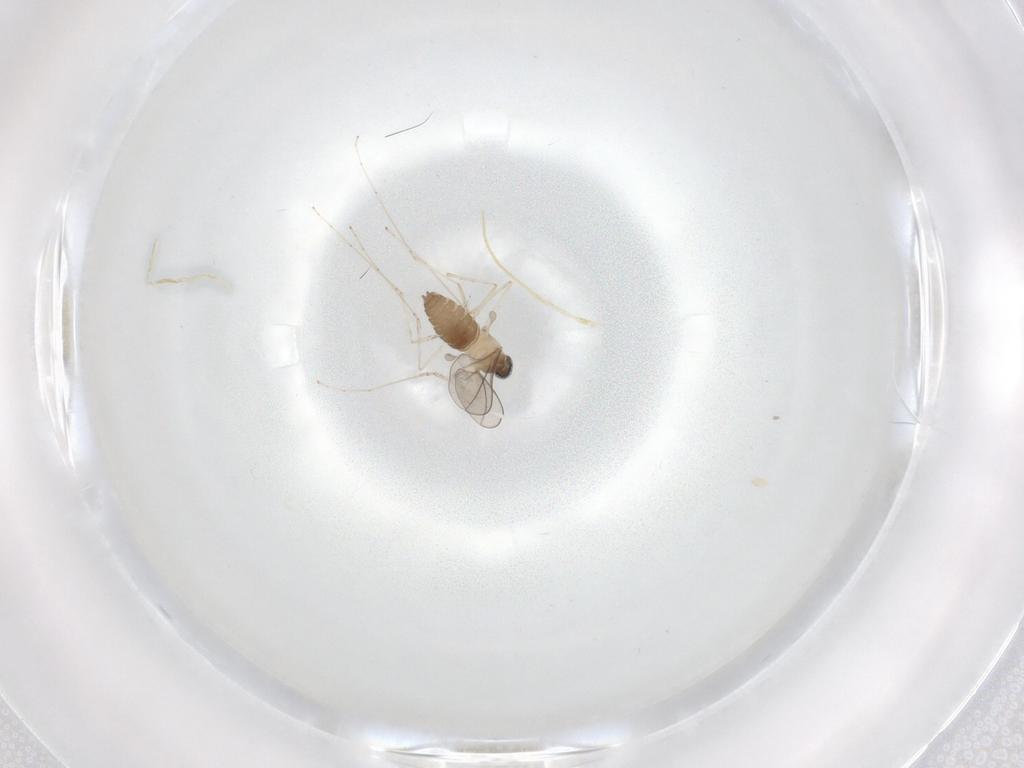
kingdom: Animalia
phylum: Arthropoda
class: Insecta
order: Diptera
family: Cecidomyiidae
